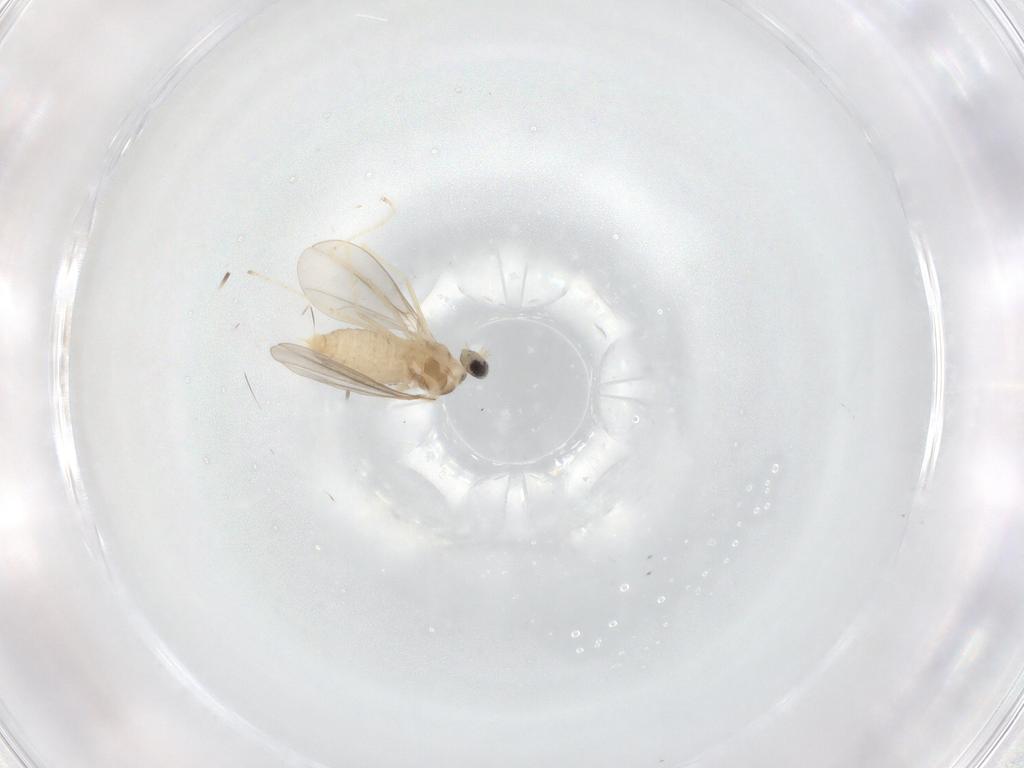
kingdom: Animalia
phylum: Arthropoda
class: Insecta
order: Diptera
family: Cecidomyiidae
